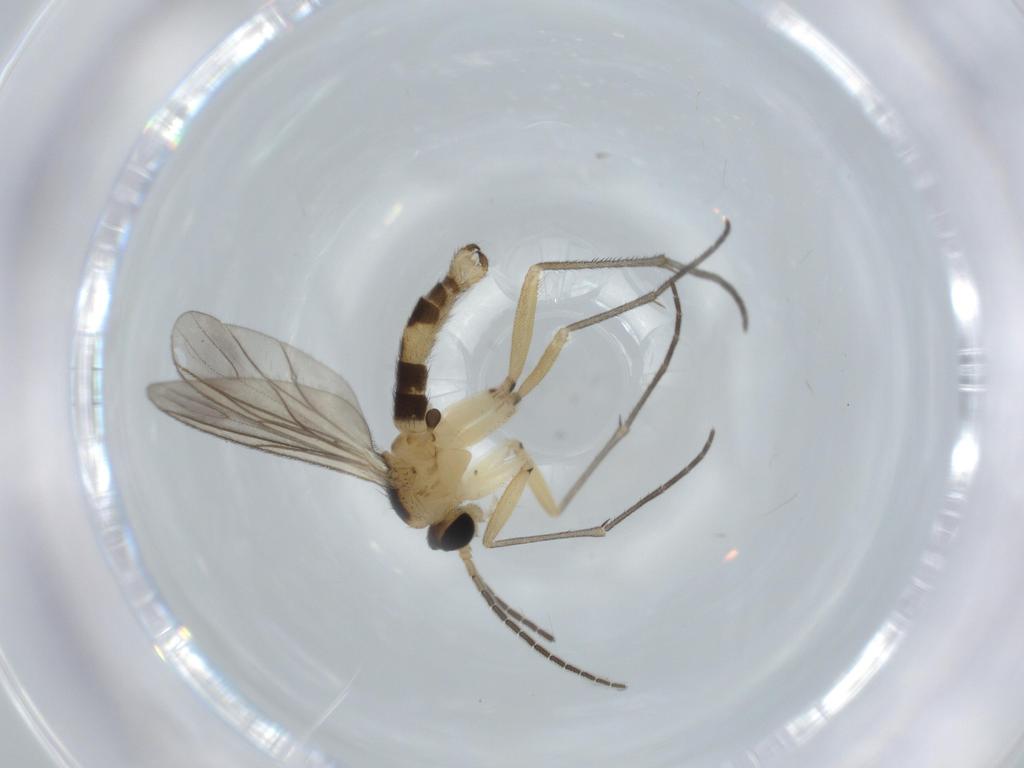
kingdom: Animalia
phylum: Arthropoda
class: Insecta
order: Diptera
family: Sciaridae
